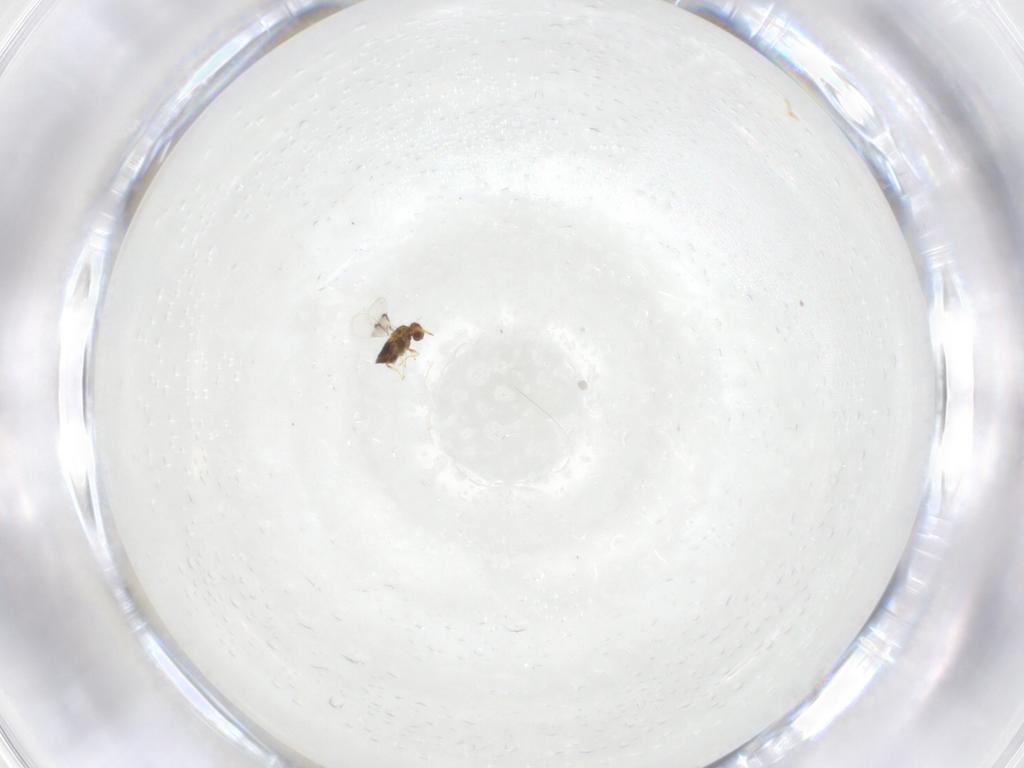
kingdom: Animalia
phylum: Arthropoda
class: Insecta
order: Hymenoptera
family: Trichogrammatidae
